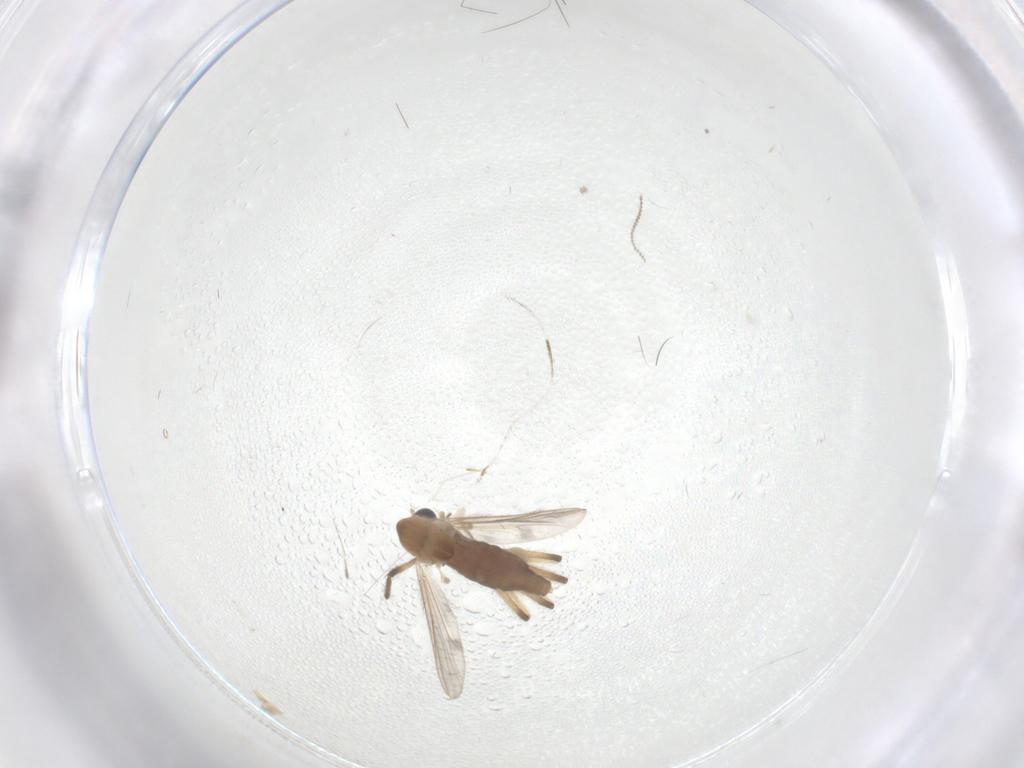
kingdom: Animalia
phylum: Arthropoda
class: Insecta
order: Diptera
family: Chironomidae
